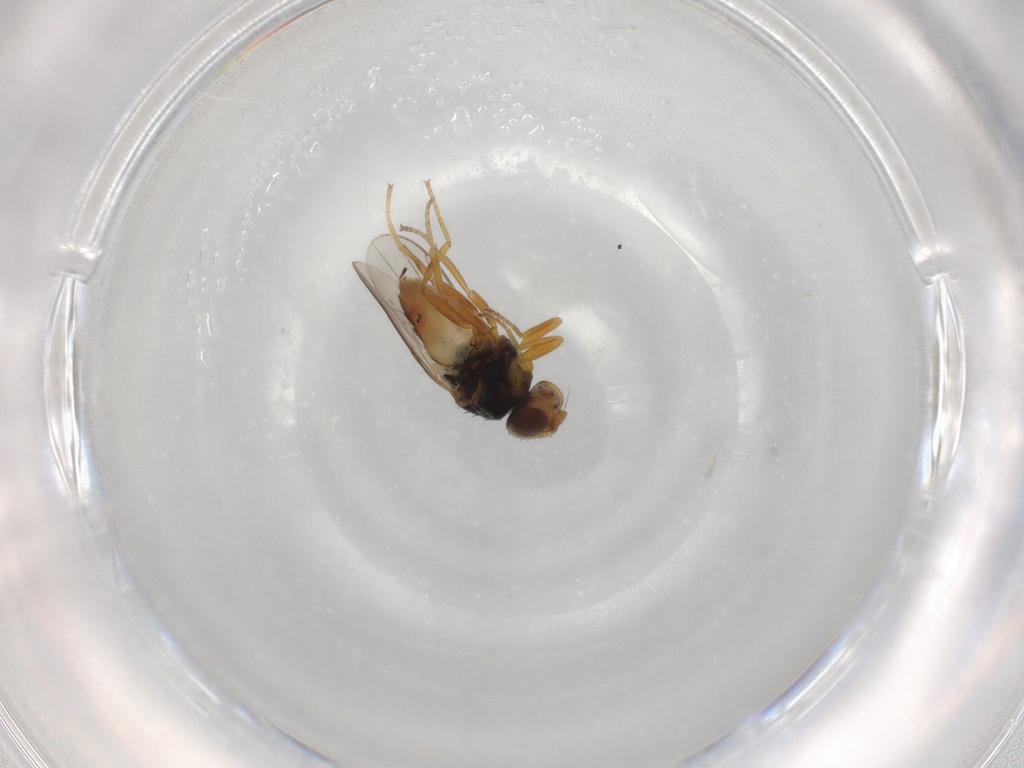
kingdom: Animalia
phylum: Arthropoda
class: Insecta
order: Diptera
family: Chloropidae
